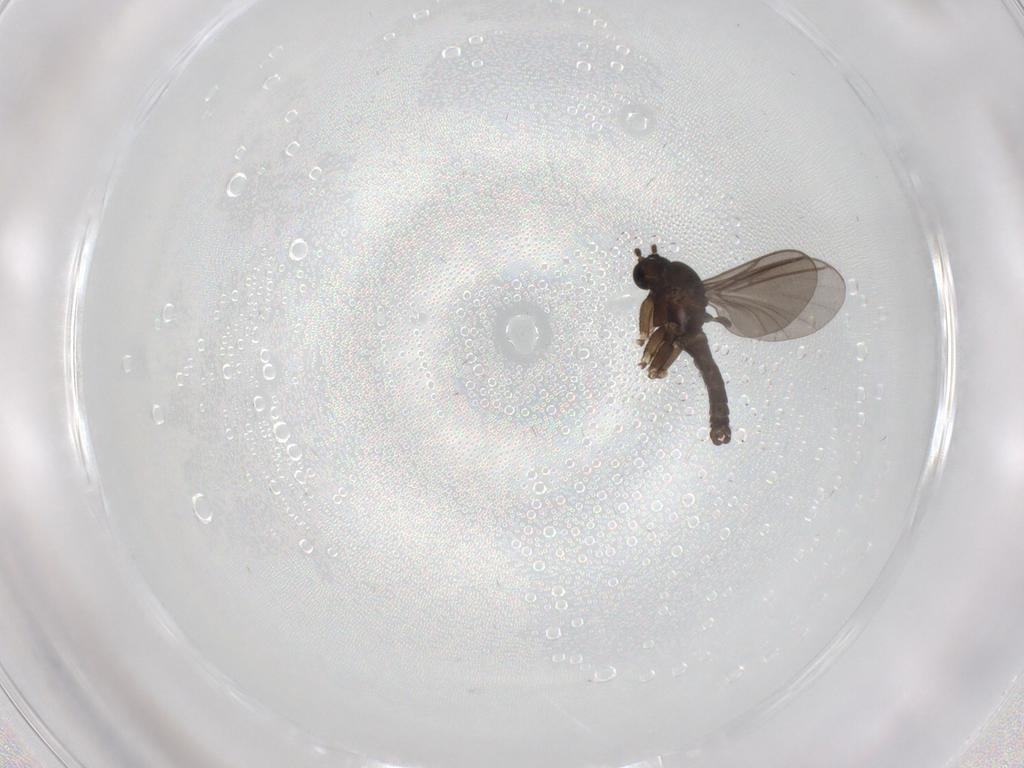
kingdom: Animalia
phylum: Arthropoda
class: Insecta
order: Diptera
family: Sciaridae
